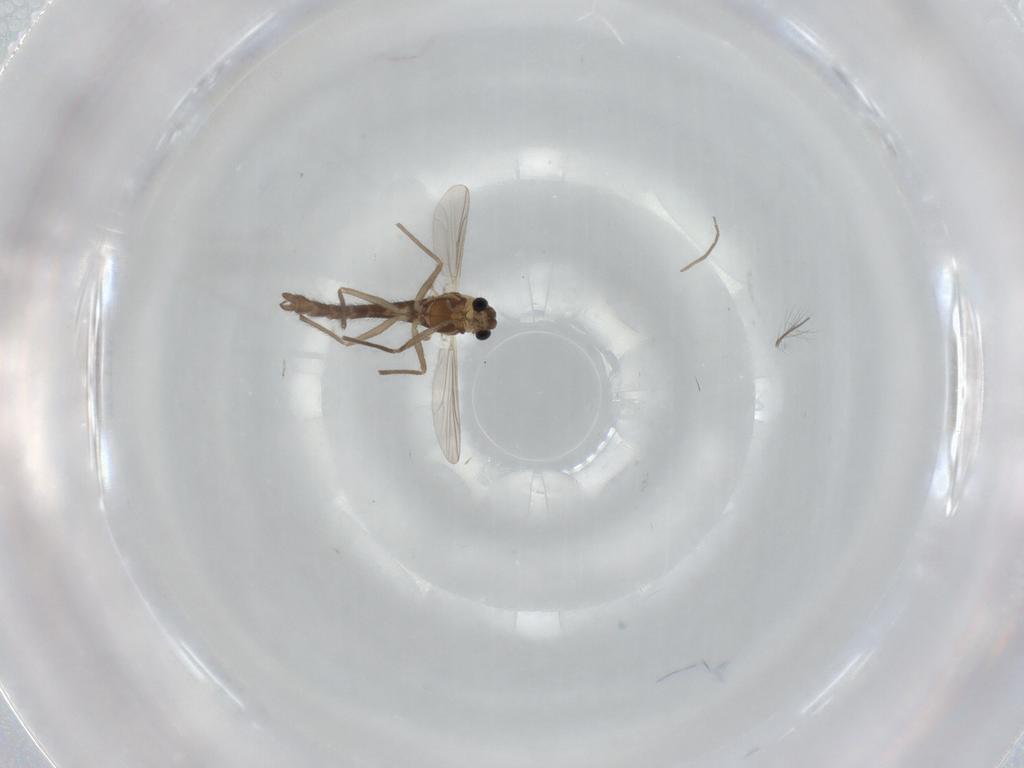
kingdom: Animalia
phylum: Arthropoda
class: Insecta
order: Diptera
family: Chironomidae
